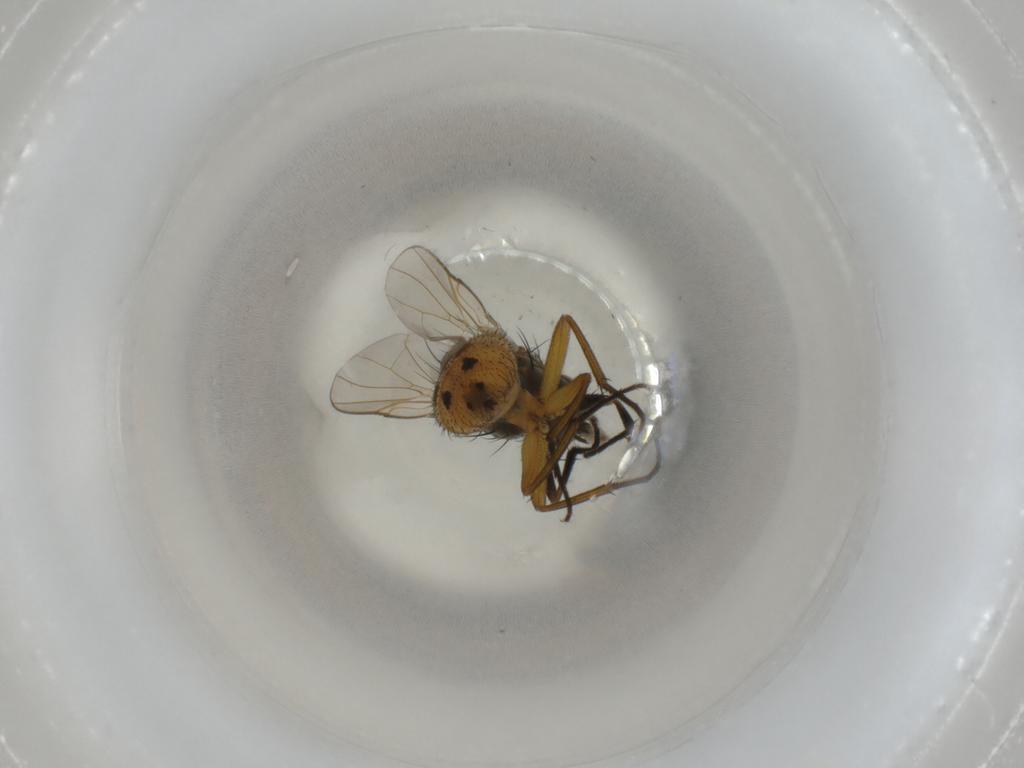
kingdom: Animalia
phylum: Arthropoda
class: Insecta
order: Diptera
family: Muscidae
